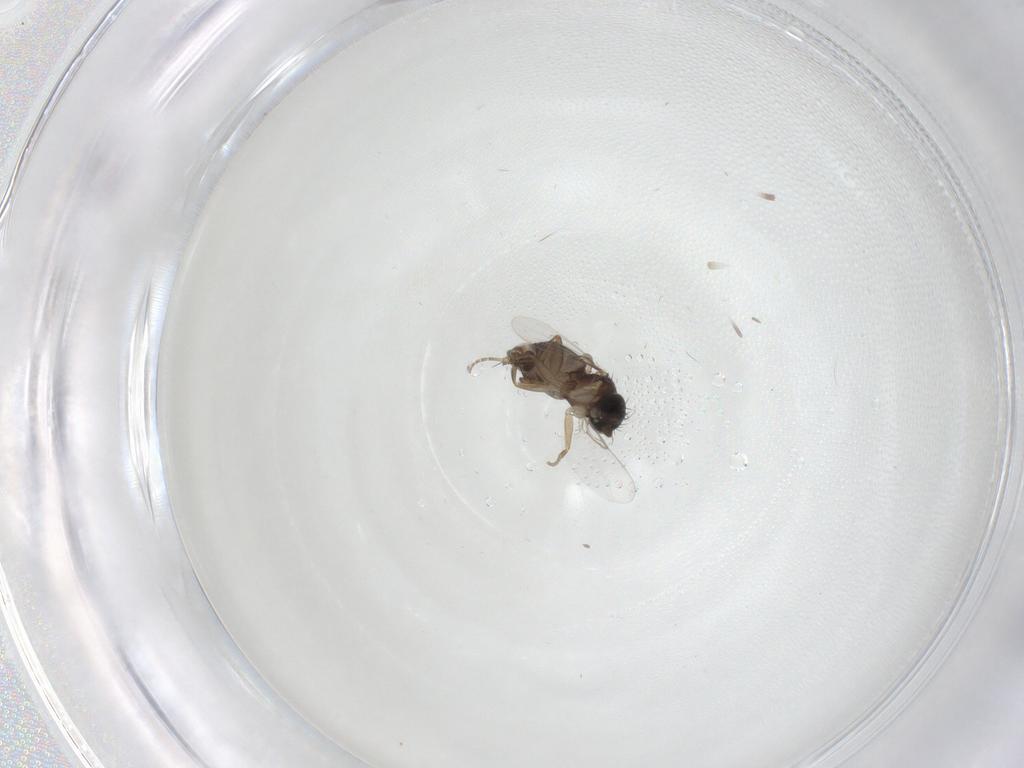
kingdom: Animalia
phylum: Arthropoda
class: Insecta
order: Diptera
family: Phoridae
